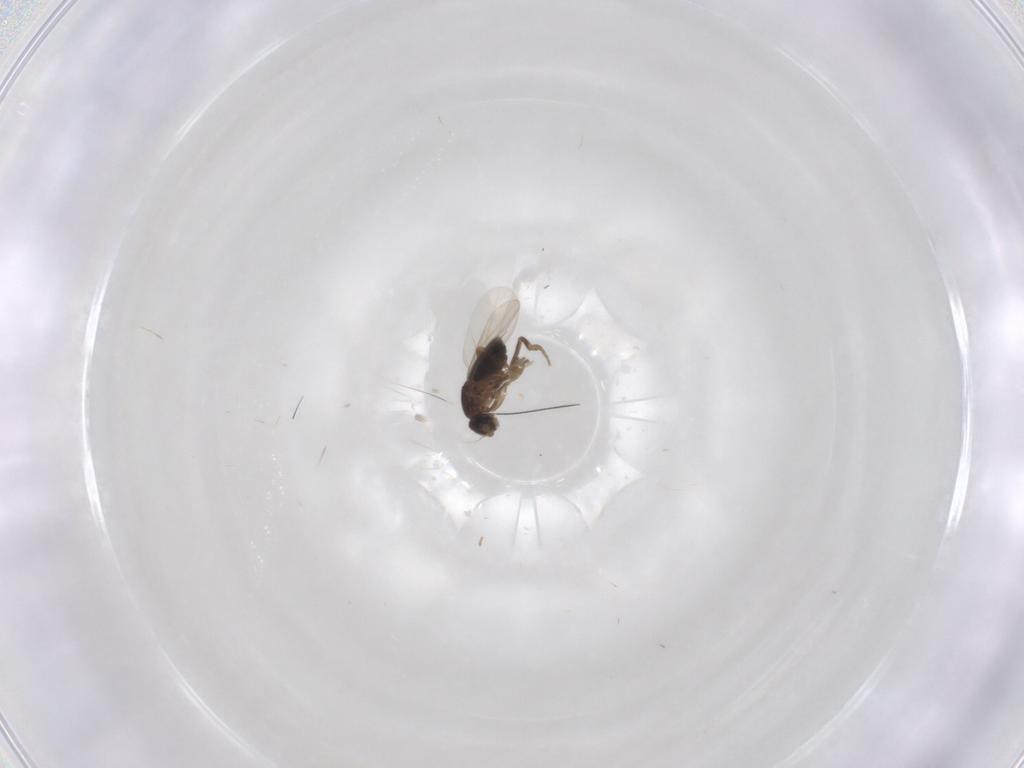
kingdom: Animalia
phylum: Arthropoda
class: Insecta
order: Diptera
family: Phoridae
